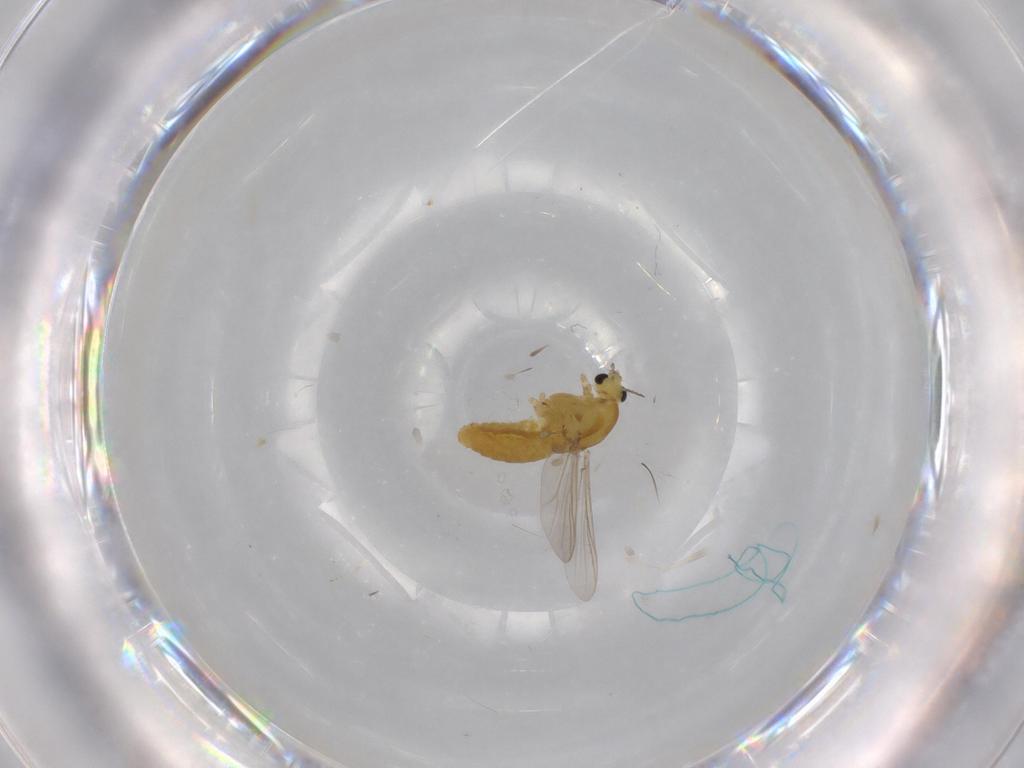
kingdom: Animalia
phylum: Arthropoda
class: Insecta
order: Diptera
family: Chironomidae
